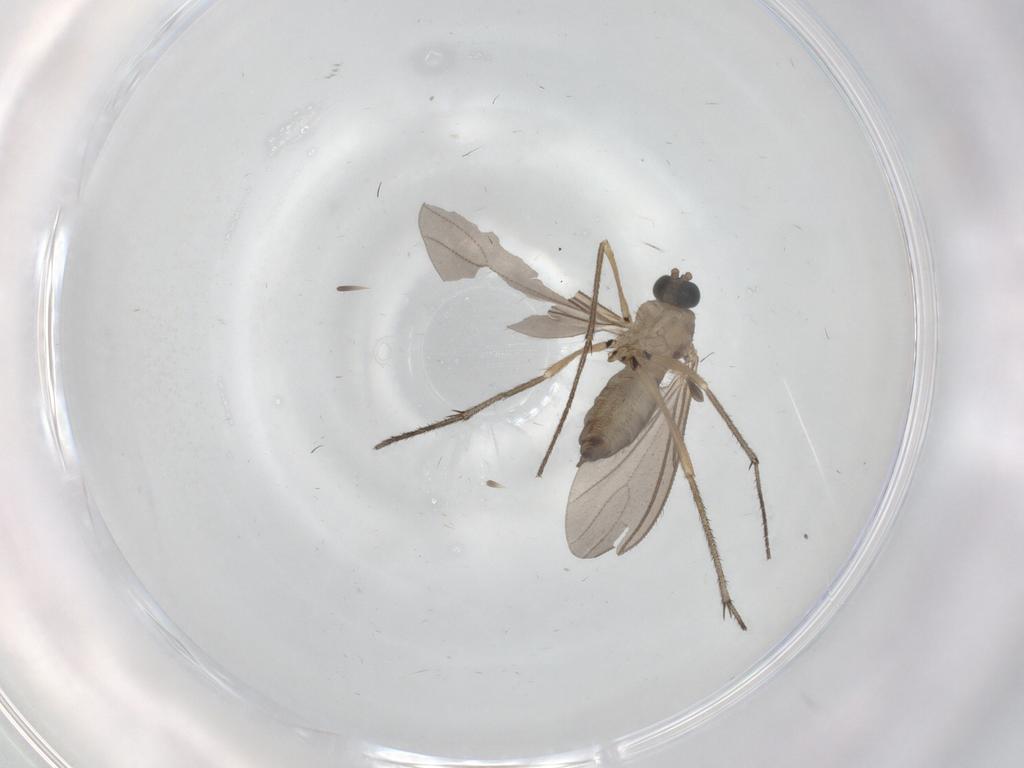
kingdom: Animalia
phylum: Arthropoda
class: Insecta
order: Diptera
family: Sciaridae
